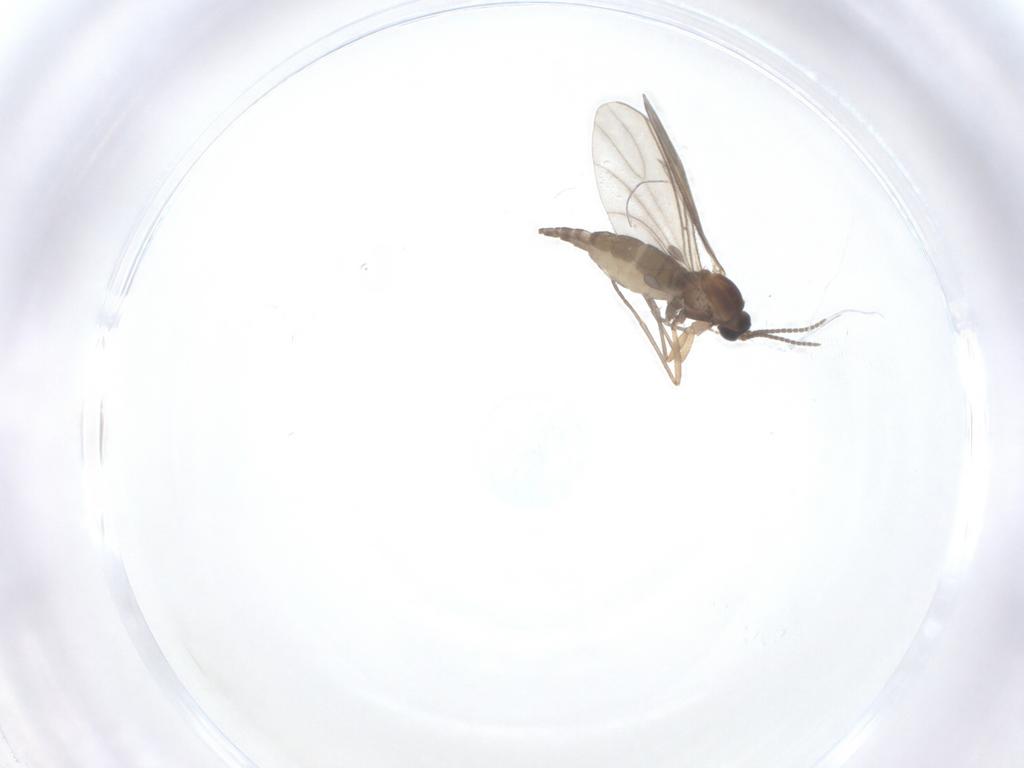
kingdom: Animalia
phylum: Arthropoda
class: Insecta
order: Diptera
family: Sciaridae
